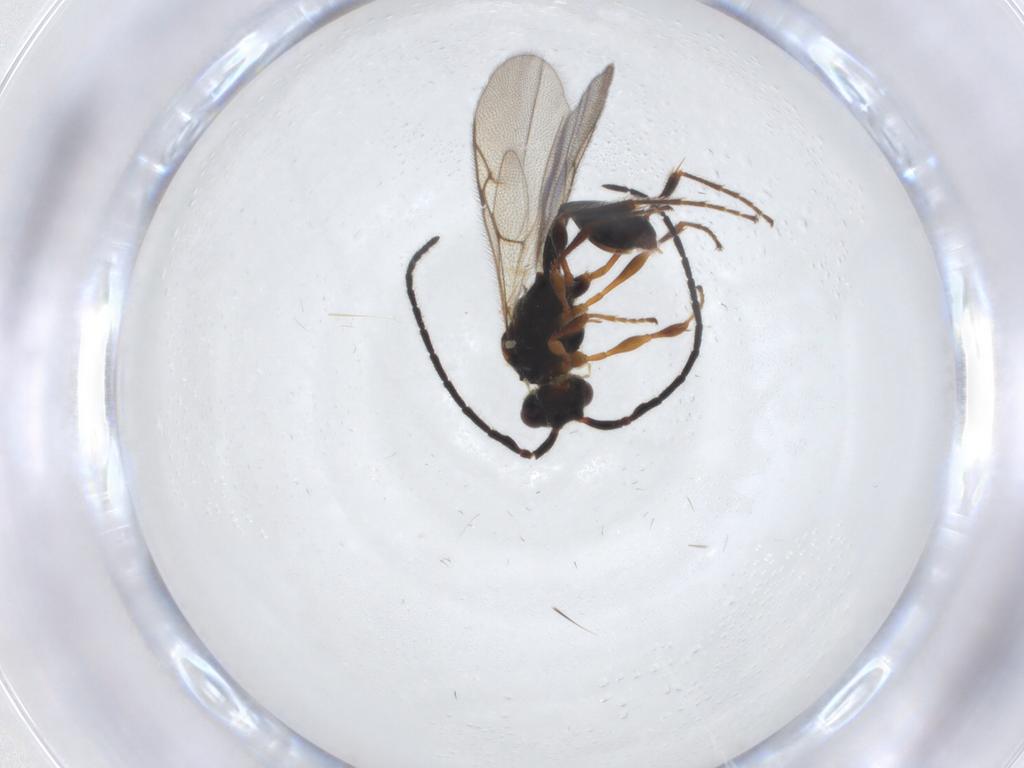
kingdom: Animalia
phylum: Arthropoda
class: Insecta
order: Hymenoptera
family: Diapriidae
